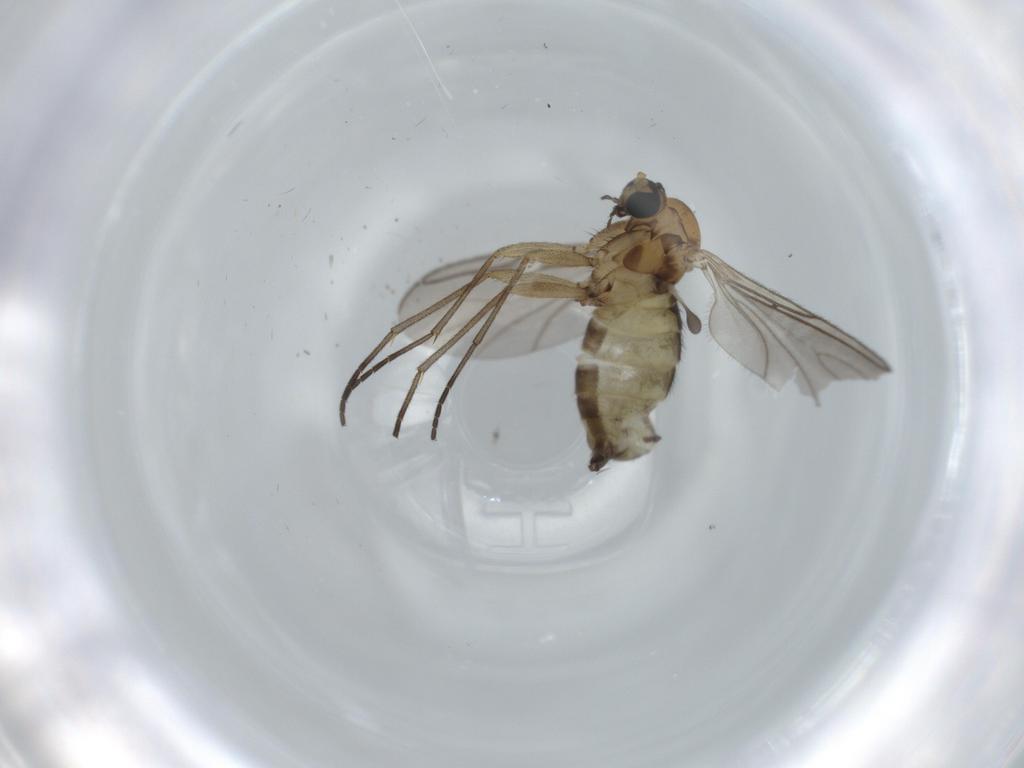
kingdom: Animalia
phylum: Arthropoda
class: Insecta
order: Diptera
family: Sciaridae
